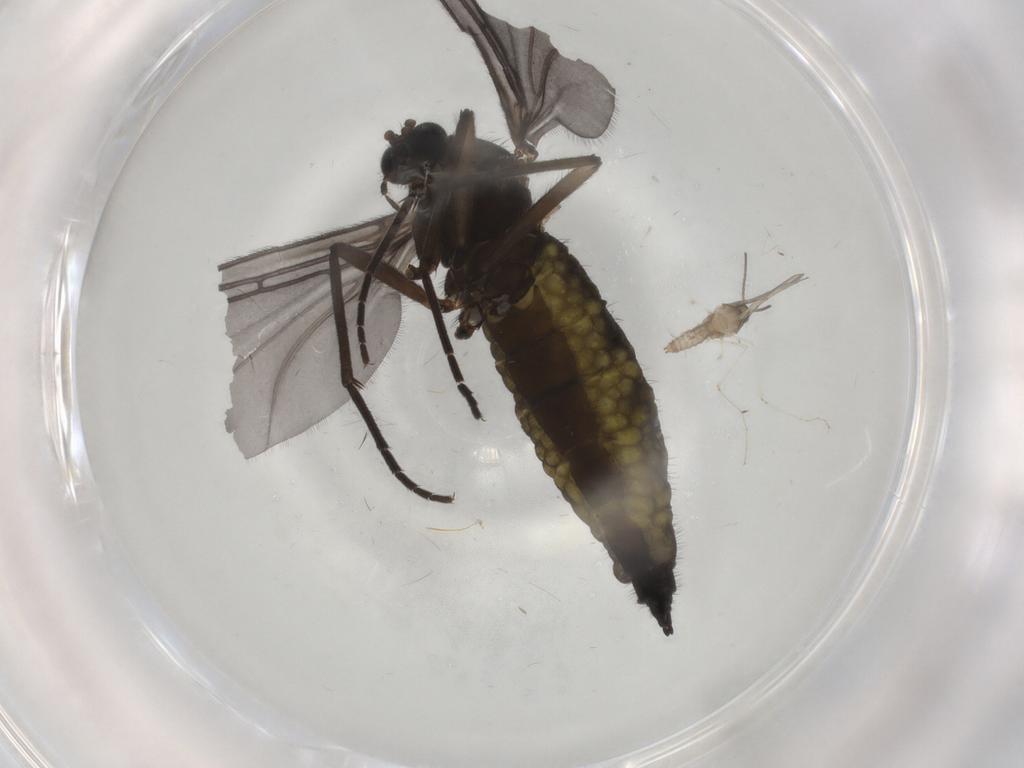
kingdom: Animalia
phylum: Arthropoda
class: Insecta
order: Diptera
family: Sciaridae
